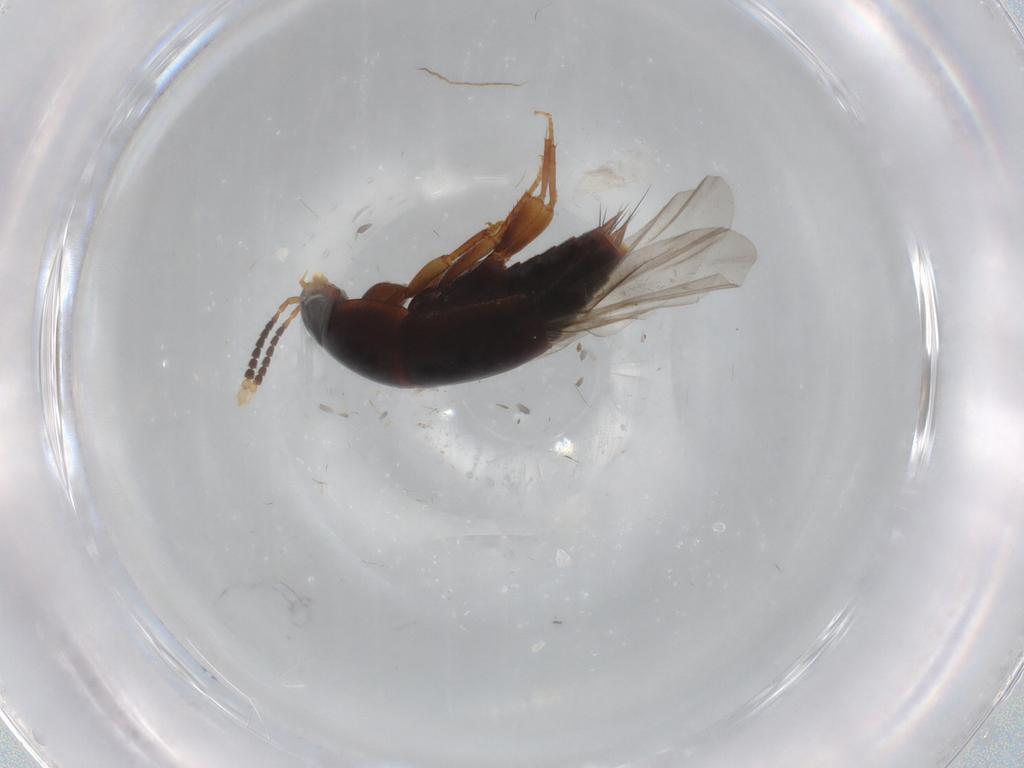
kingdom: Animalia
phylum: Arthropoda
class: Insecta
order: Coleoptera
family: Staphylinidae
